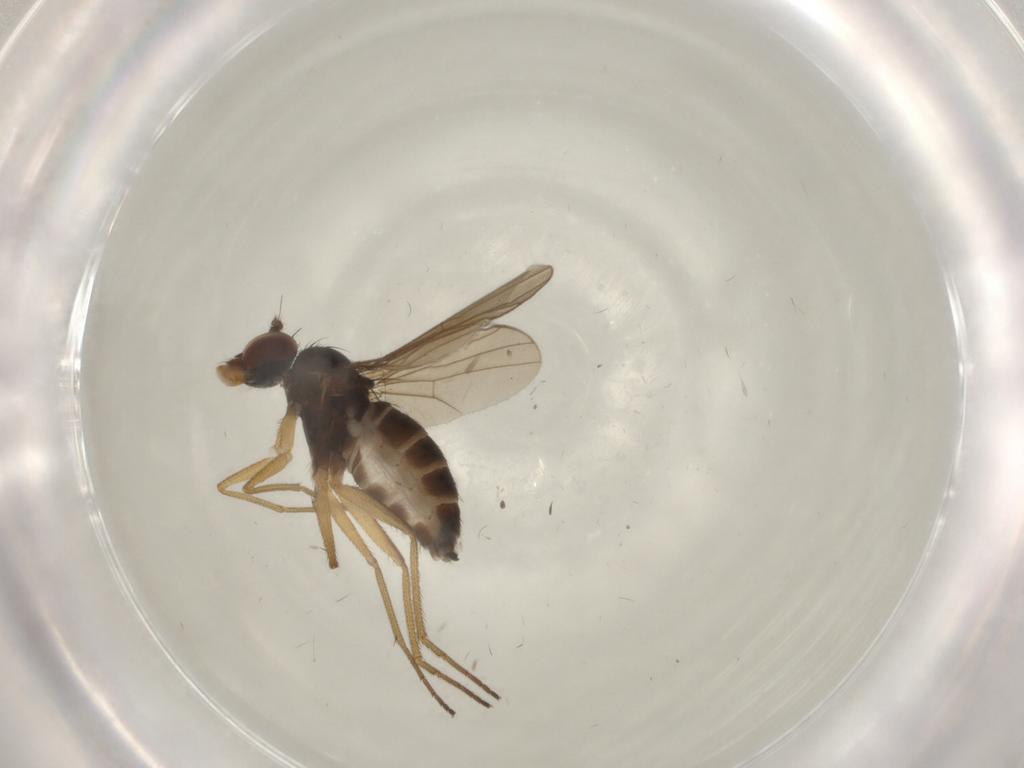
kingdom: Animalia
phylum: Arthropoda
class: Insecta
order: Diptera
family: Dolichopodidae
